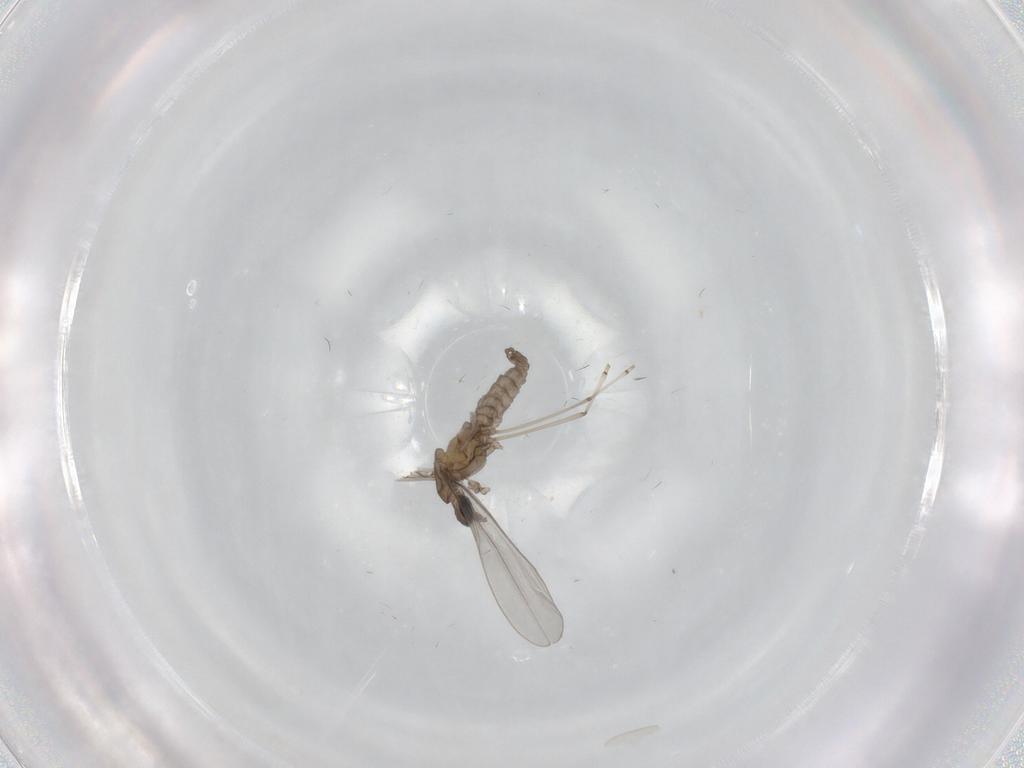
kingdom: Animalia
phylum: Arthropoda
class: Insecta
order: Diptera
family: Cecidomyiidae
